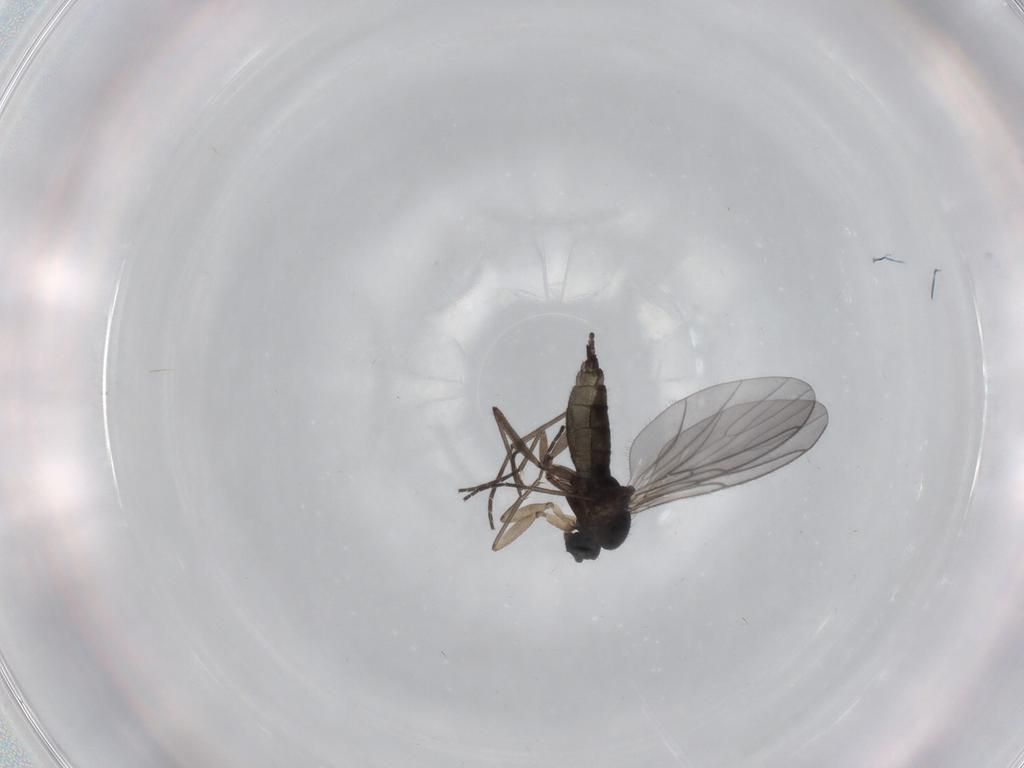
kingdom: Animalia
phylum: Arthropoda
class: Insecta
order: Diptera
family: Sciaridae
